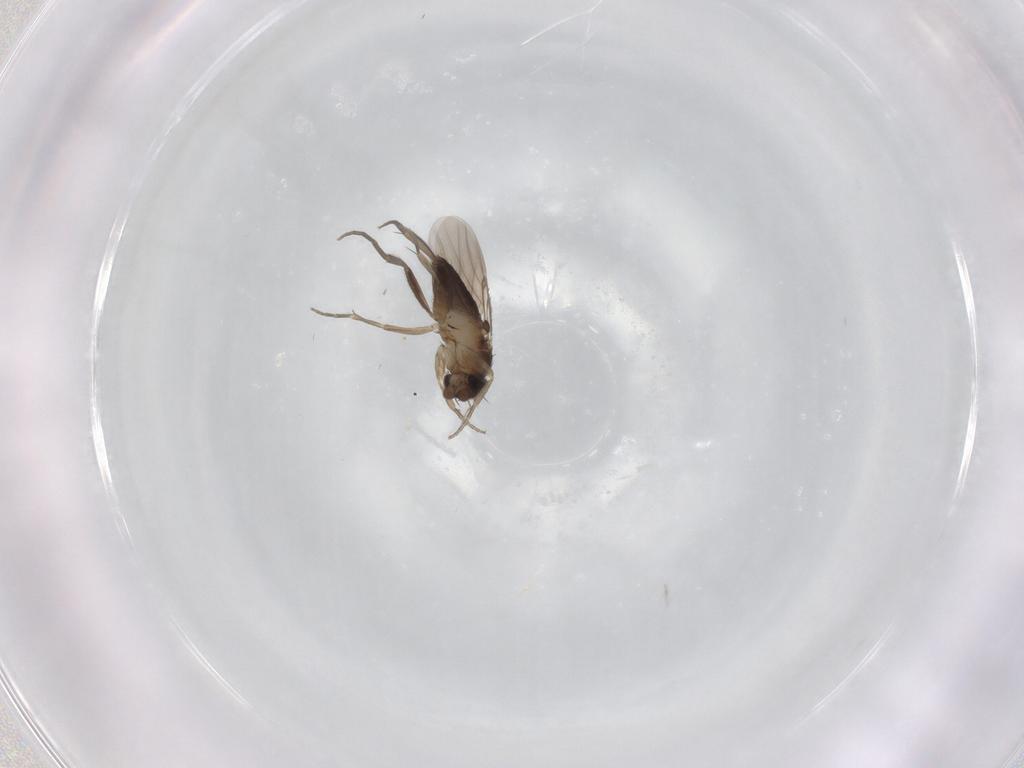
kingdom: Animalia
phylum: Arthropoda
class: Insecta
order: Diptera
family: Phoridae
